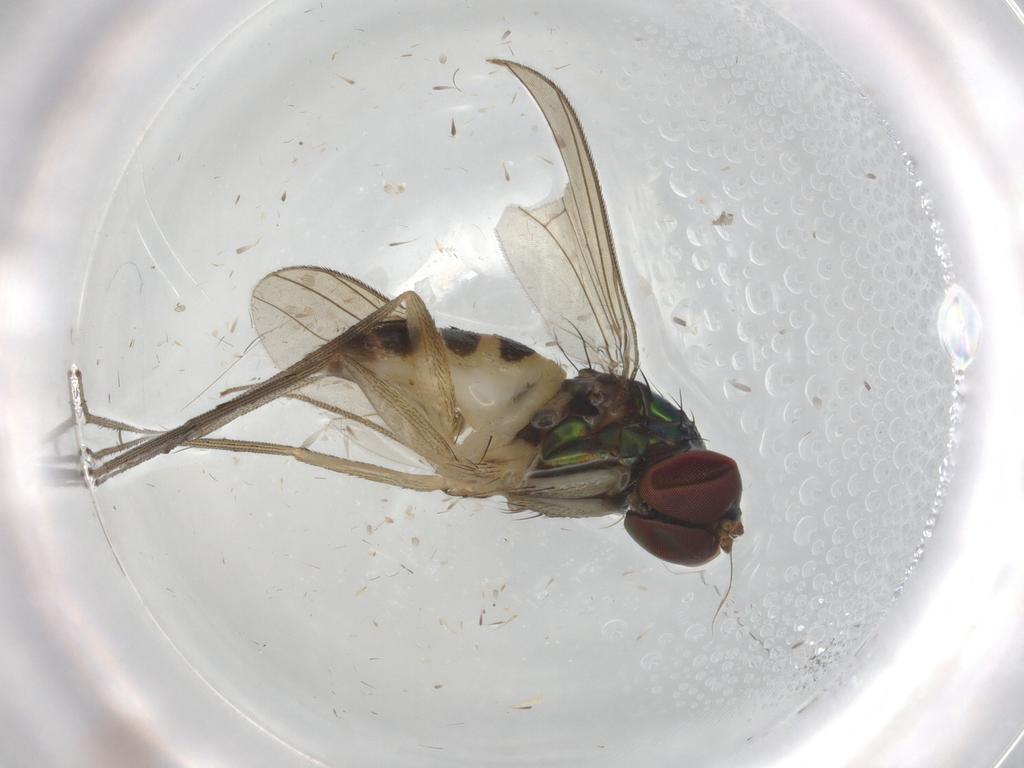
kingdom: Animalia
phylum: Arthropoda
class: Insecta
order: Diptera
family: Dolichopodidae
